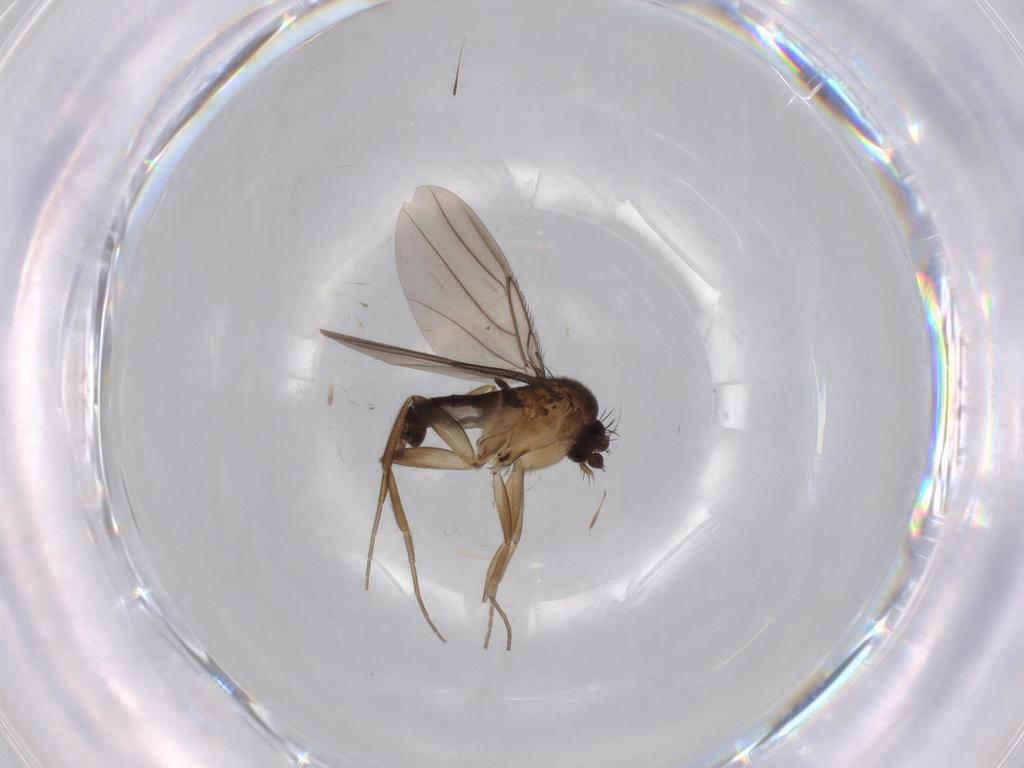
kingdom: Animalia
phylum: Arthropoda
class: Insecta
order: Diptera
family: Phoridae
